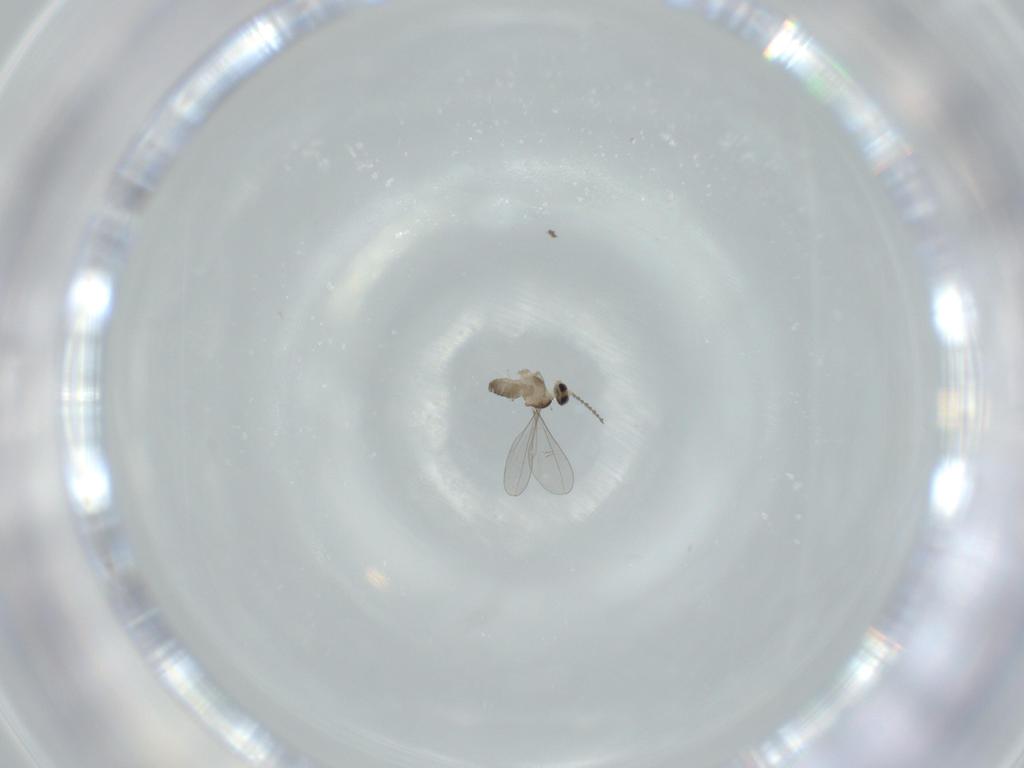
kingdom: Animalia
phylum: Arthropoda
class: Insecta
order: Diptera
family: Cecidomyiidae
